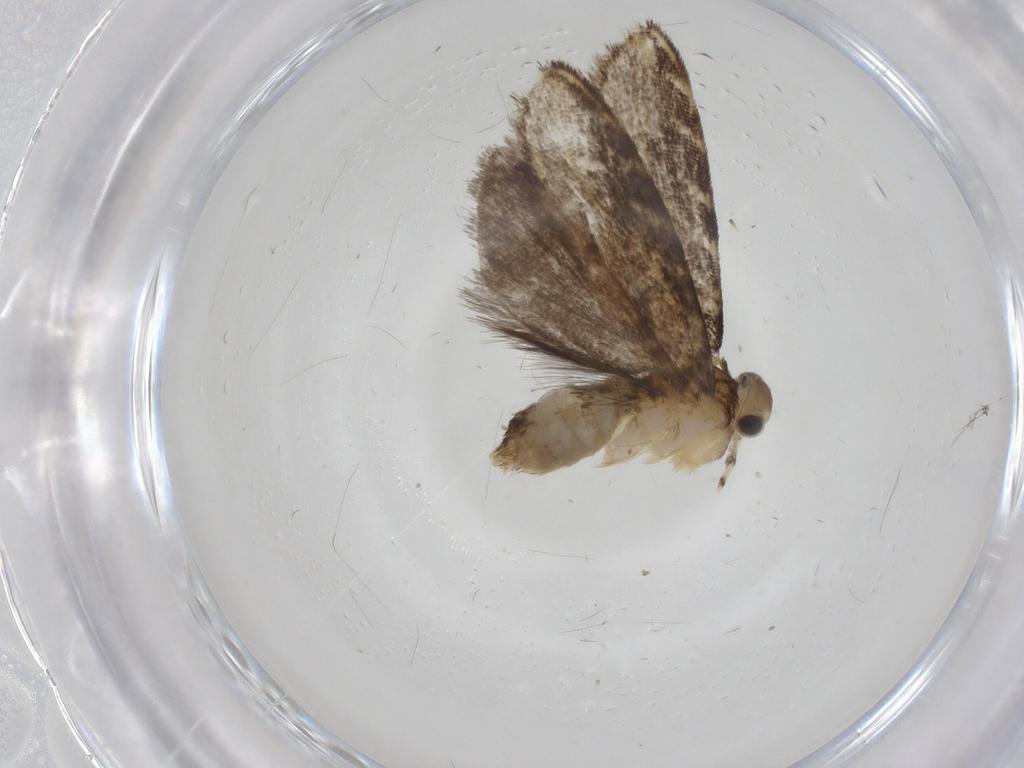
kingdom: Animalia
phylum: Arthropoda
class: Insecta
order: Lepidoptera
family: Tineidae
